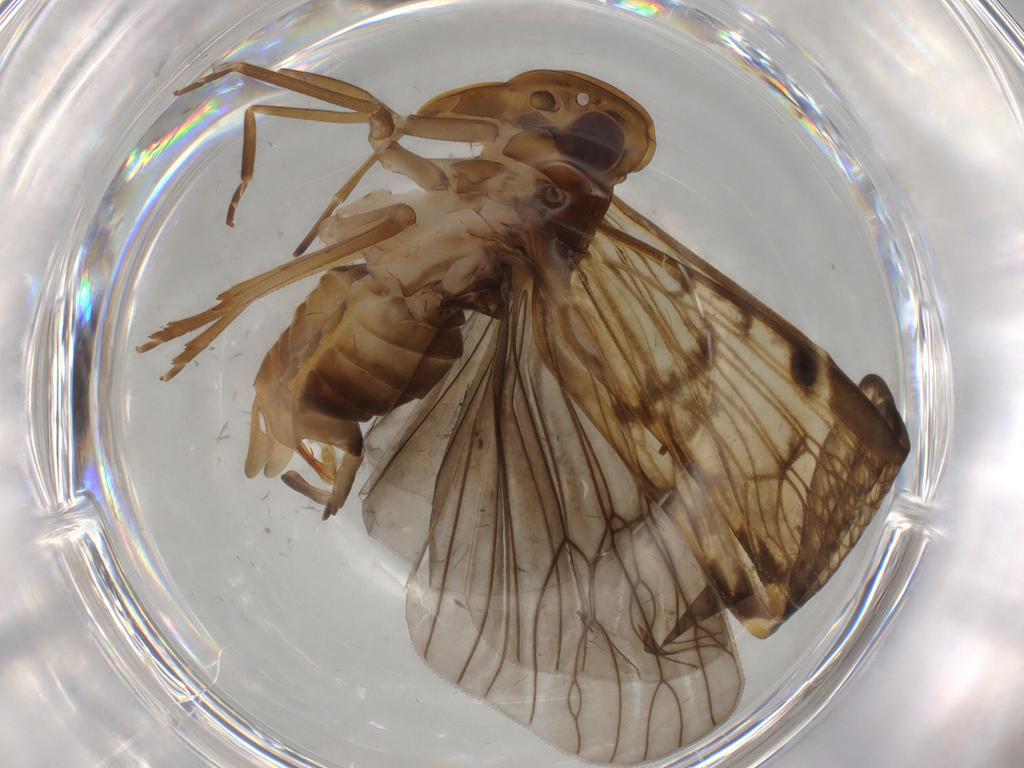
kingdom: Animalia
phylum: Arthropoda
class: Insecta
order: Hemiptera
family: Cixiidae
